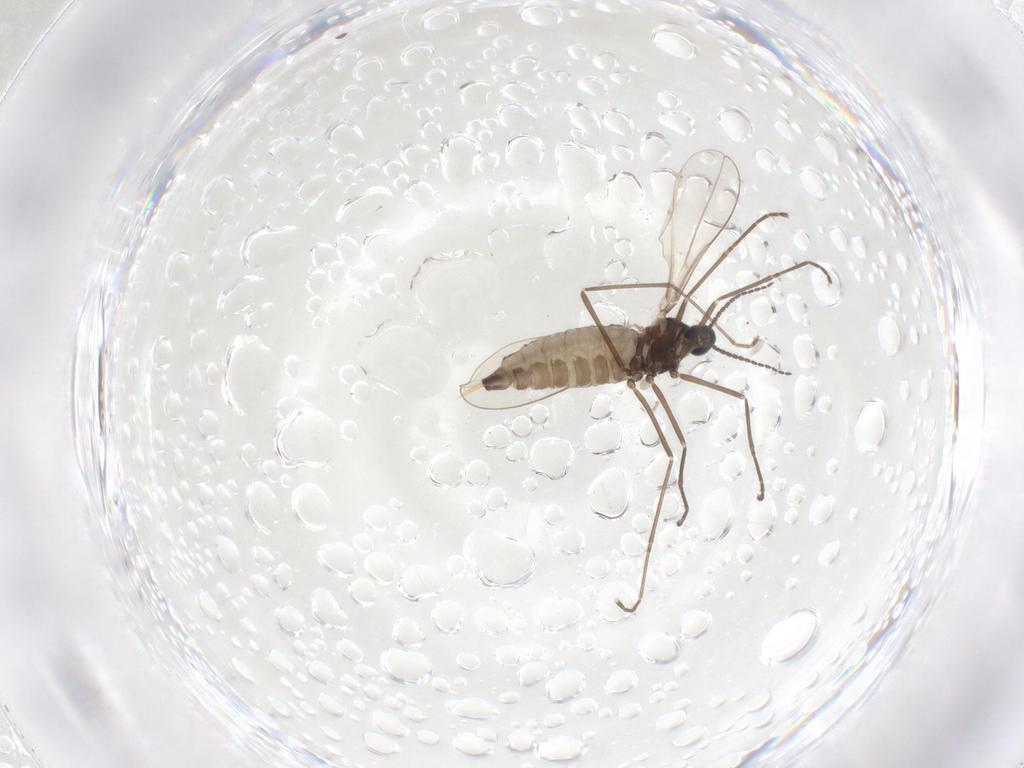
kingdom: Animalia
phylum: Arthropoda
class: Insecta
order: Diptera
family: Cecidomyiidae
